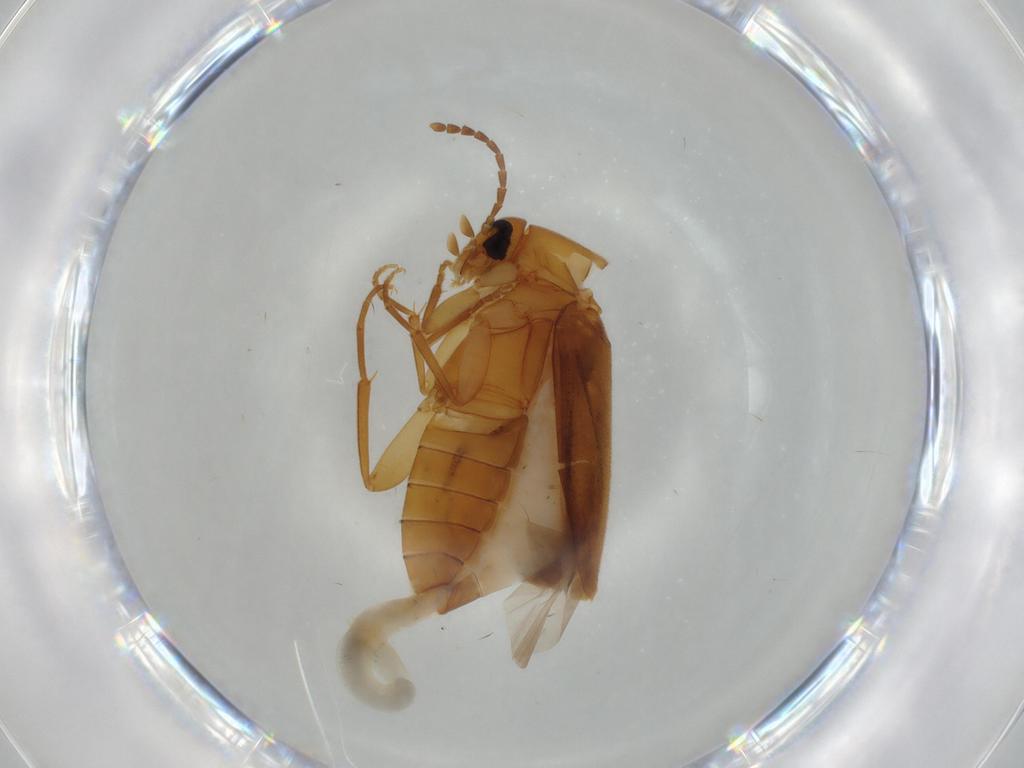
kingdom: Animalia
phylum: Arthropoda
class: Insecta
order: Coleoptera
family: Scraptiidae
